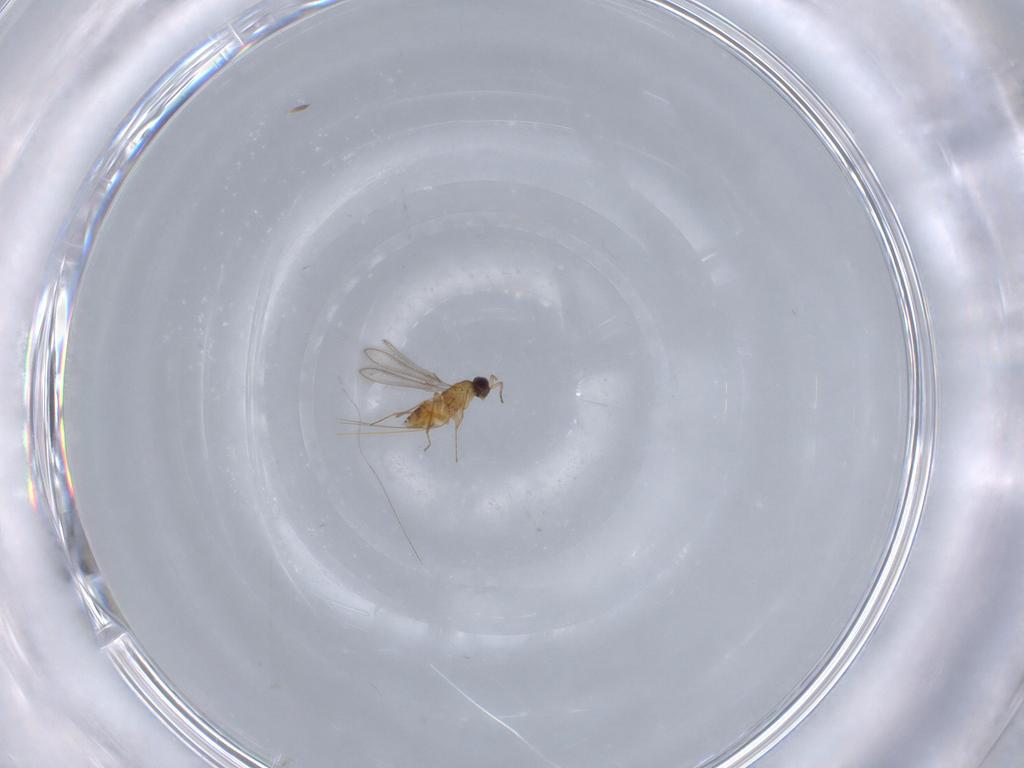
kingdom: Animalia
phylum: Arthropoda
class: Insecta
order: Hymenoptera
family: Mymaridae
